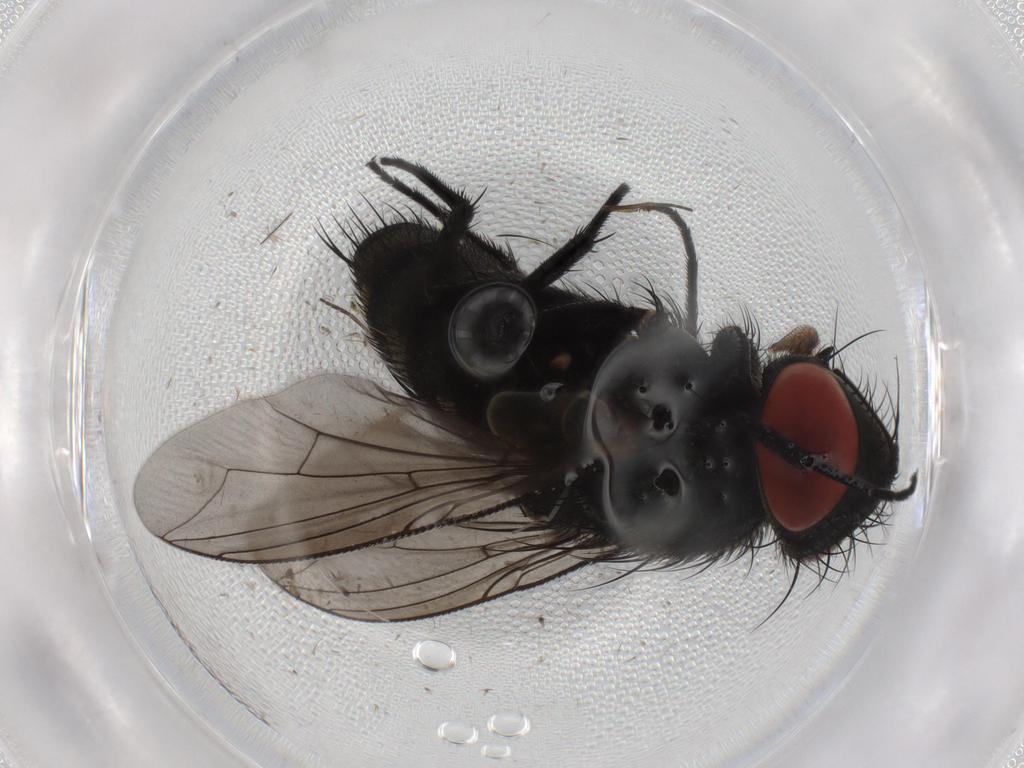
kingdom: Animalia
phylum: Arthropoda
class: Insecta
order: Diptera
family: Sarcophagidae
